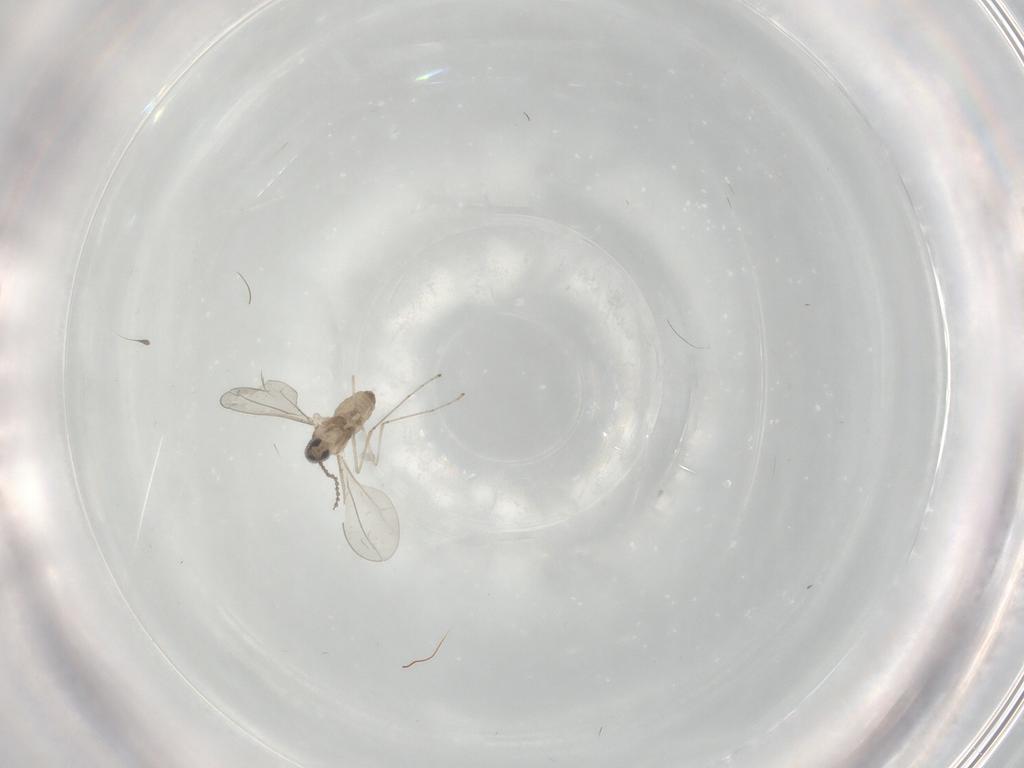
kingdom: Animalia
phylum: Arthropoda
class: Insecta
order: Diptera
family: Cecidomyiidae
